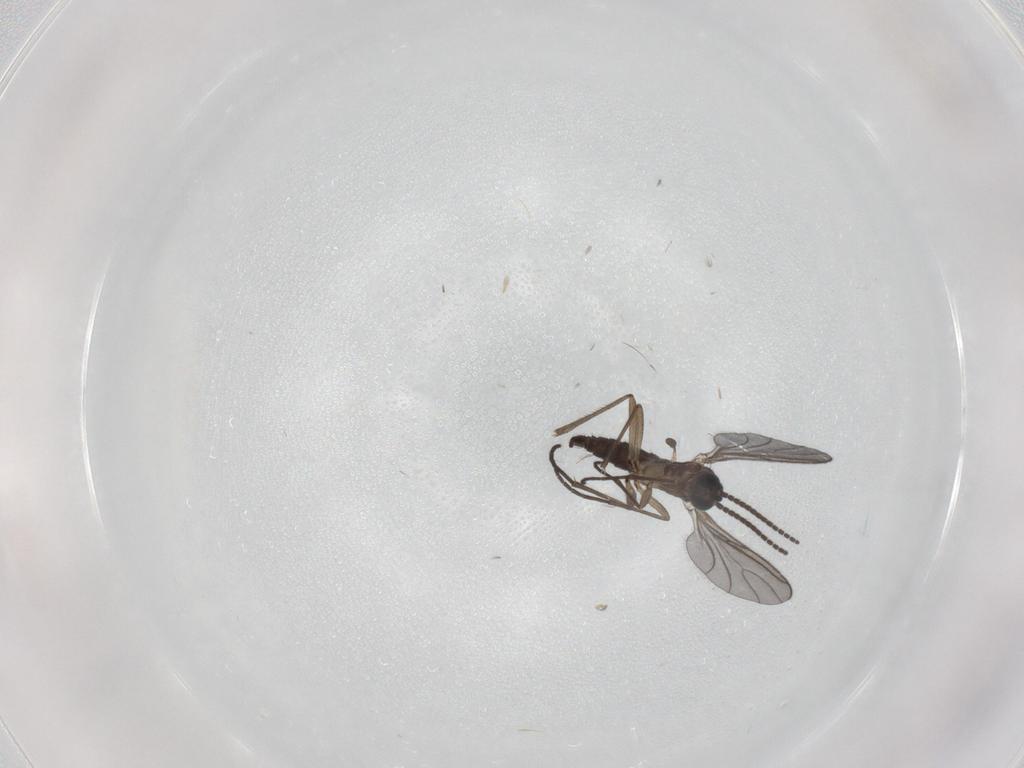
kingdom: Animalia
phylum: Arthropoda
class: Insecta
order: Diptera
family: Sciaridae
